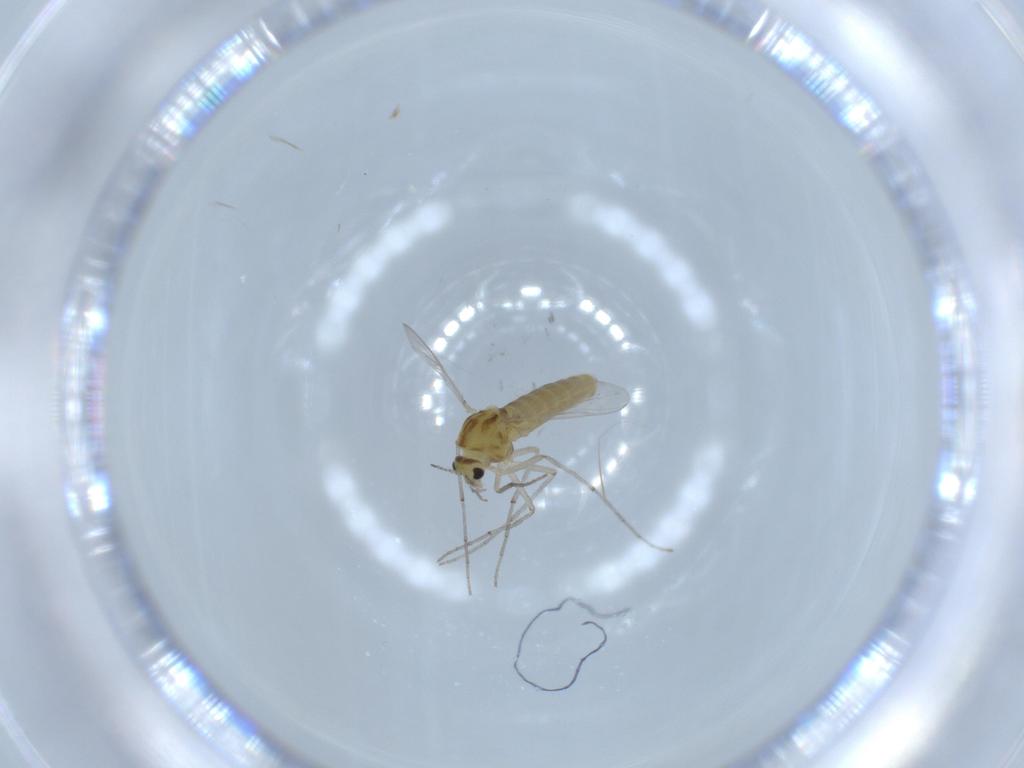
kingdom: Animalia
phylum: Arthropoda
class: Insecta
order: Diptera
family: Chironomidae
